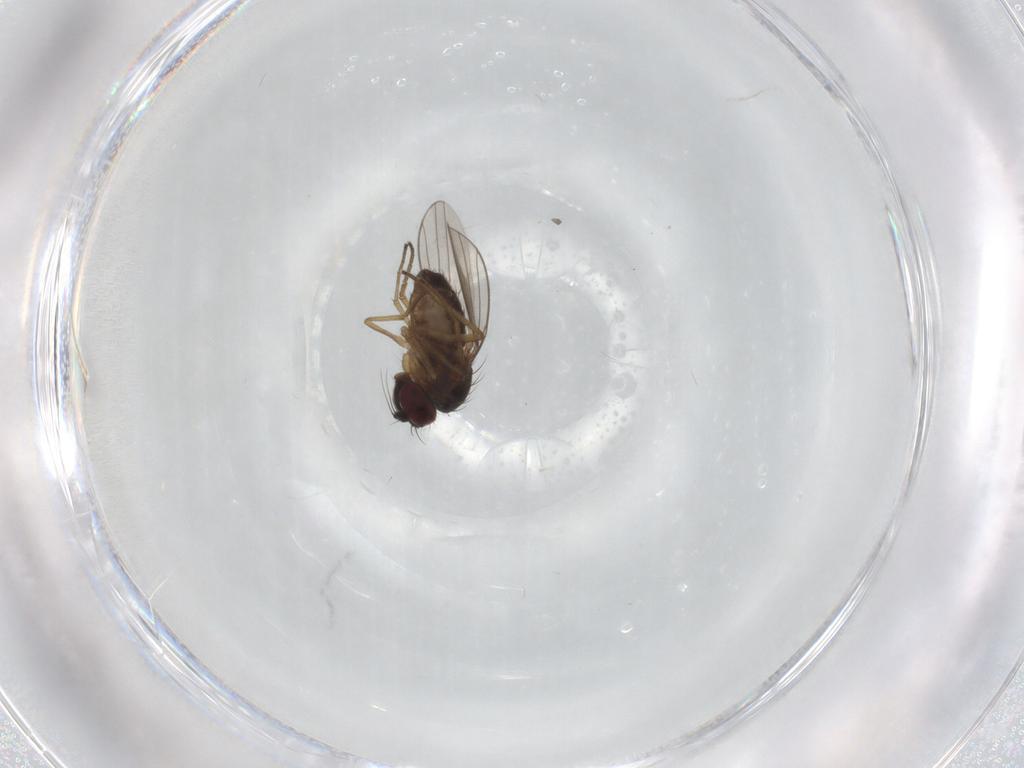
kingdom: Animalia
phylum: Arthropoda
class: Insecta
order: Diptera
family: Dolichopodidae
